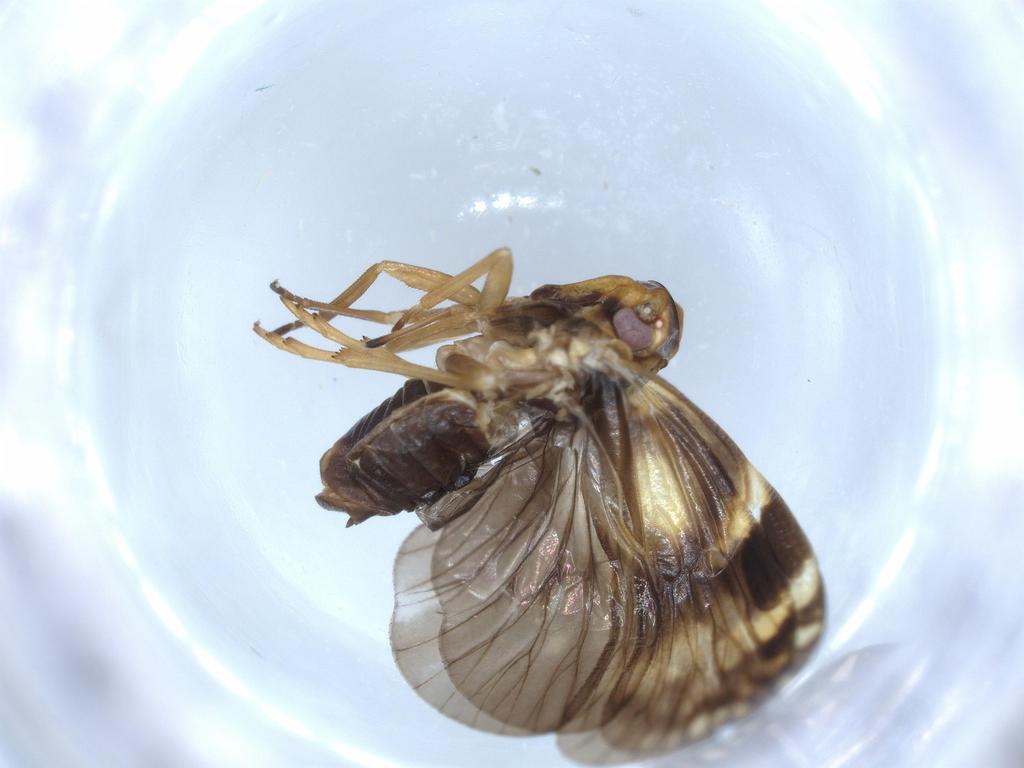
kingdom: Animalia
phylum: Arthropoda
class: Insecta
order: Hemiptera
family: Cixiidae
